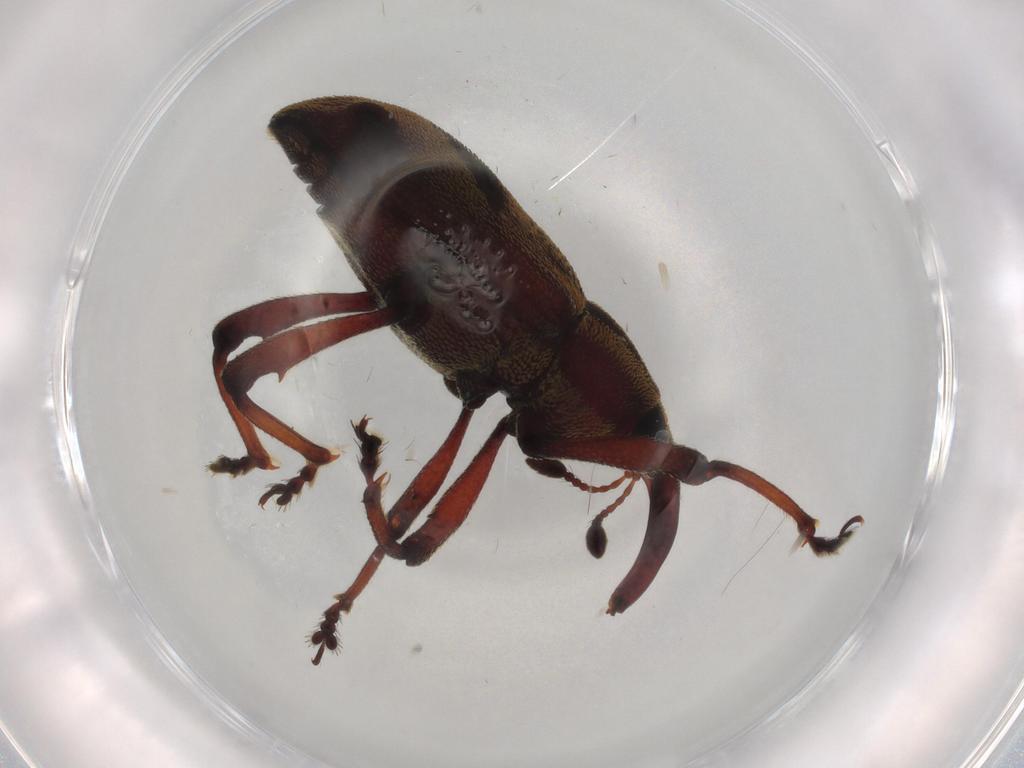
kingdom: Animalia
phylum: Arthropoda
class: Insecta
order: Coleoptera
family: Curculionidae
